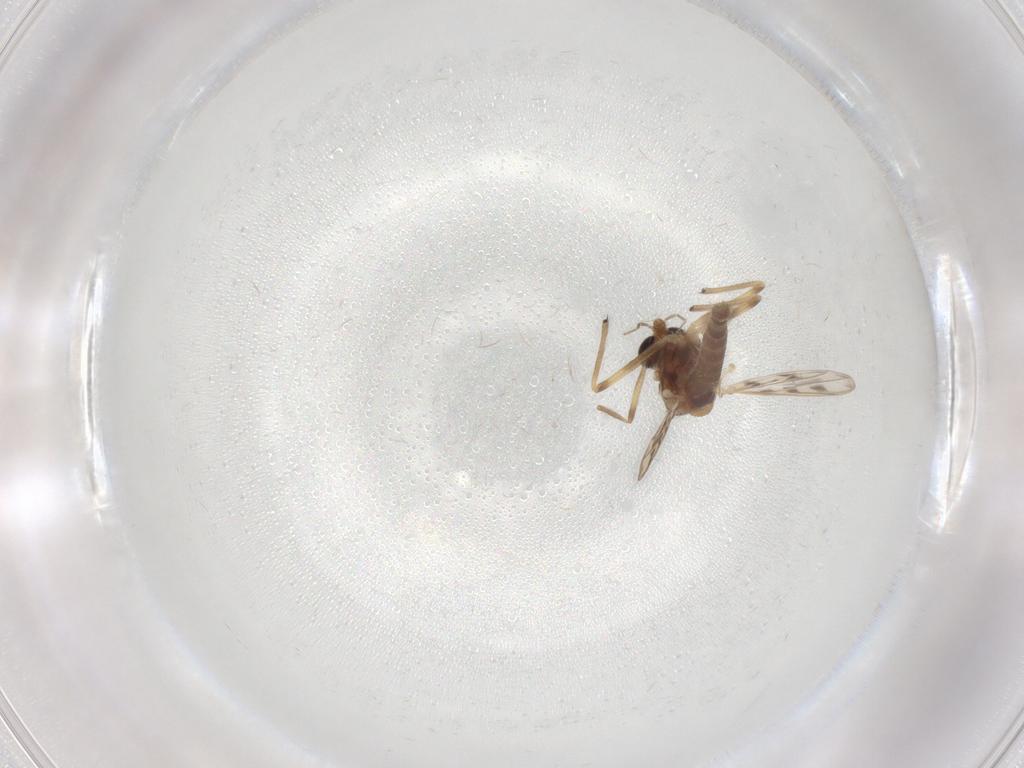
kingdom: Animalia
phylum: Arthropoda
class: Insecta
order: Diptera
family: Chironomidae
